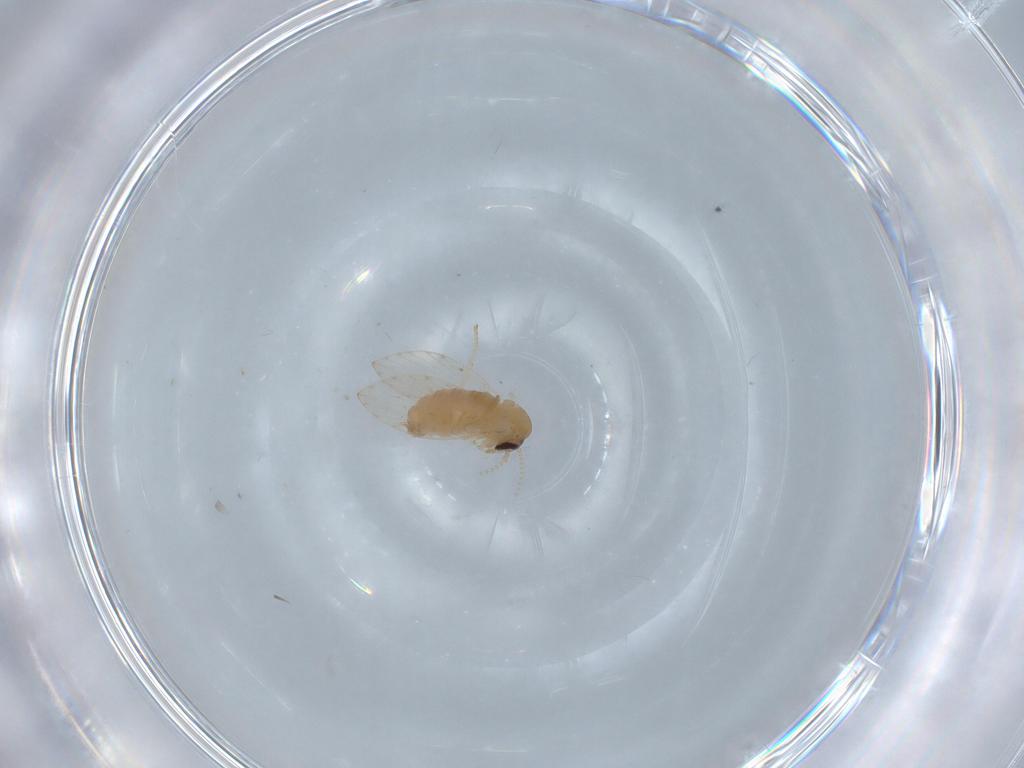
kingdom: Animalia
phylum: Arthropoda
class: Insecta
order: Diptera
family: Psychodidae
